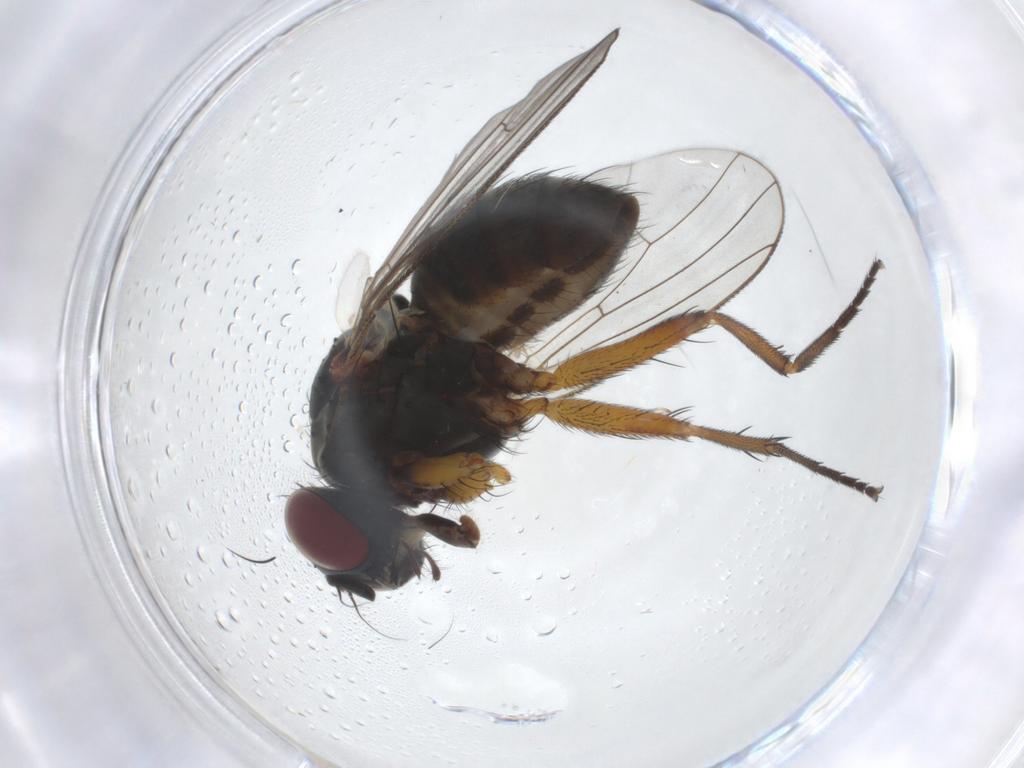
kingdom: Animalia
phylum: Arthropoda
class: Insecta
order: Diptera
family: Muscidae
